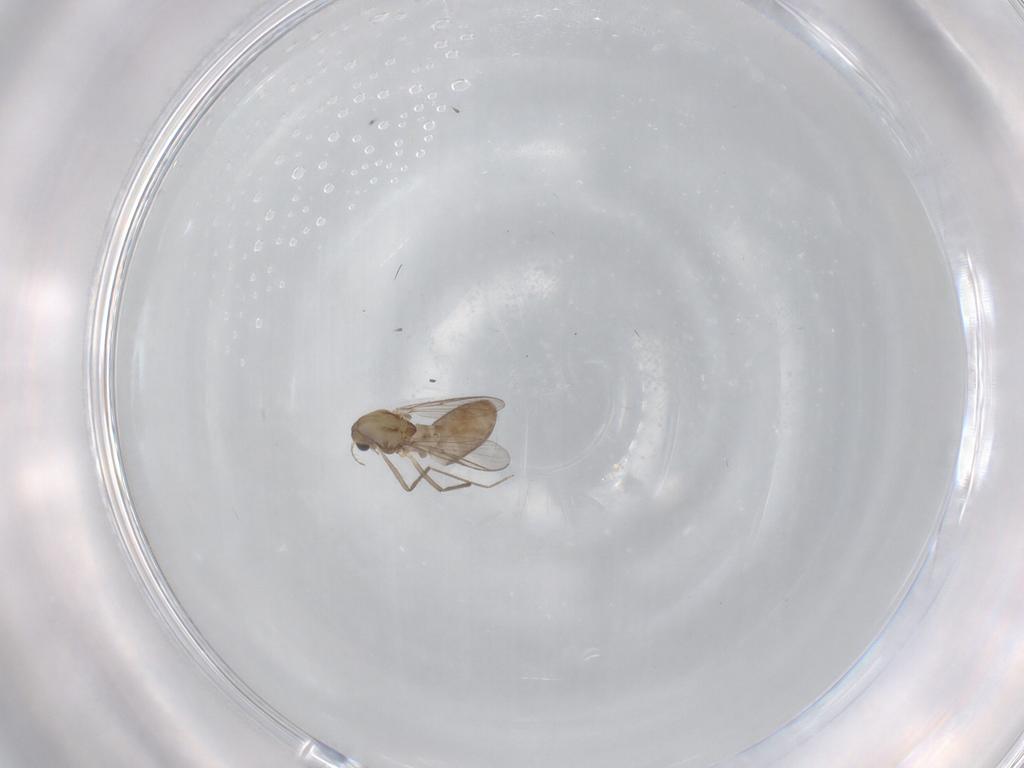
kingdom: Animalia
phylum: Arthropoda
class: Insecta
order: Diptera
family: Chironomidae
